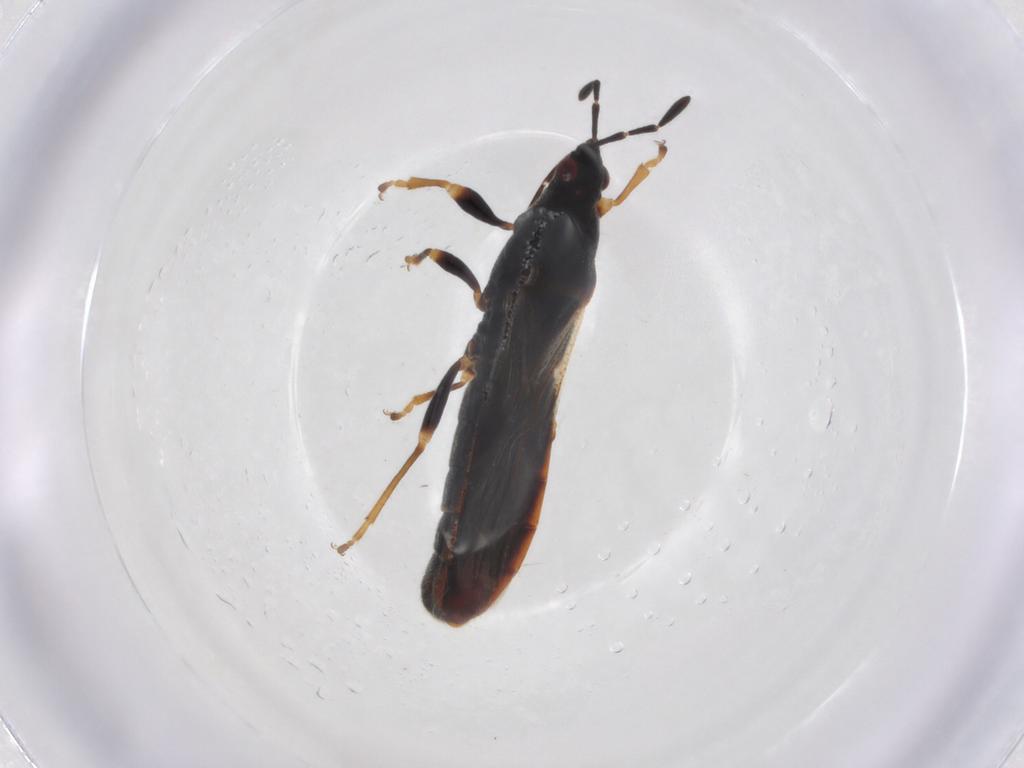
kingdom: Animalia
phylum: Arthropoda
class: Insecta
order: Hemiptera
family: Blissidae
